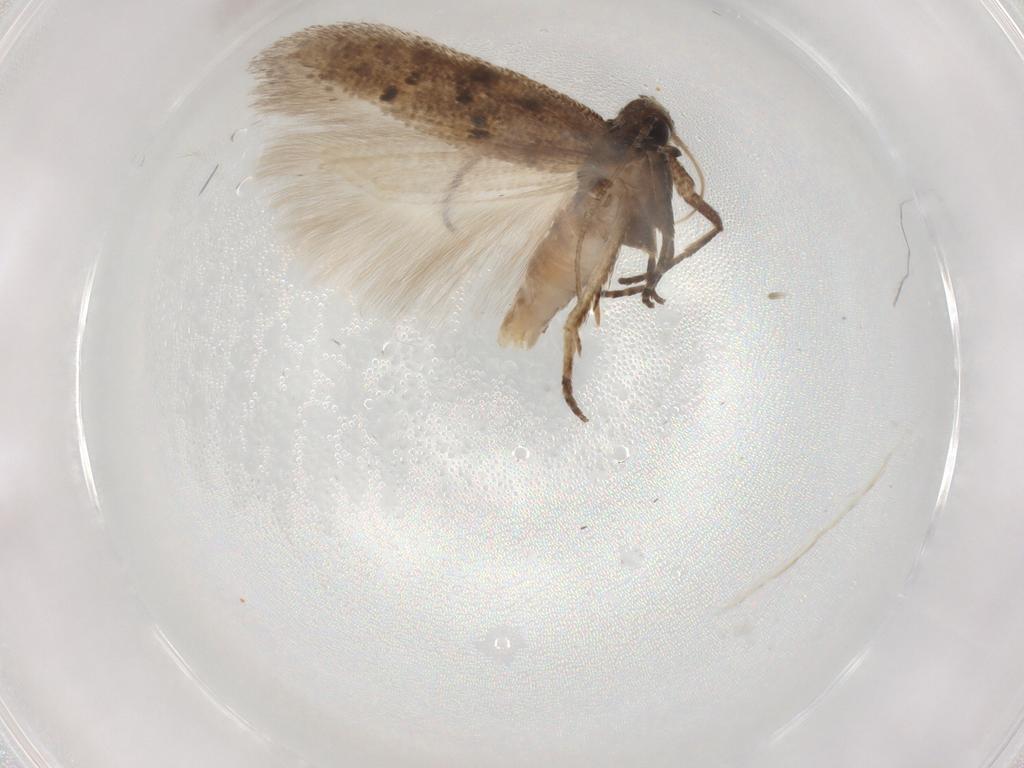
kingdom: Animalia
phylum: Arthropoda
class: Insecta
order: Lepidoptera
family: Gelechiidae
